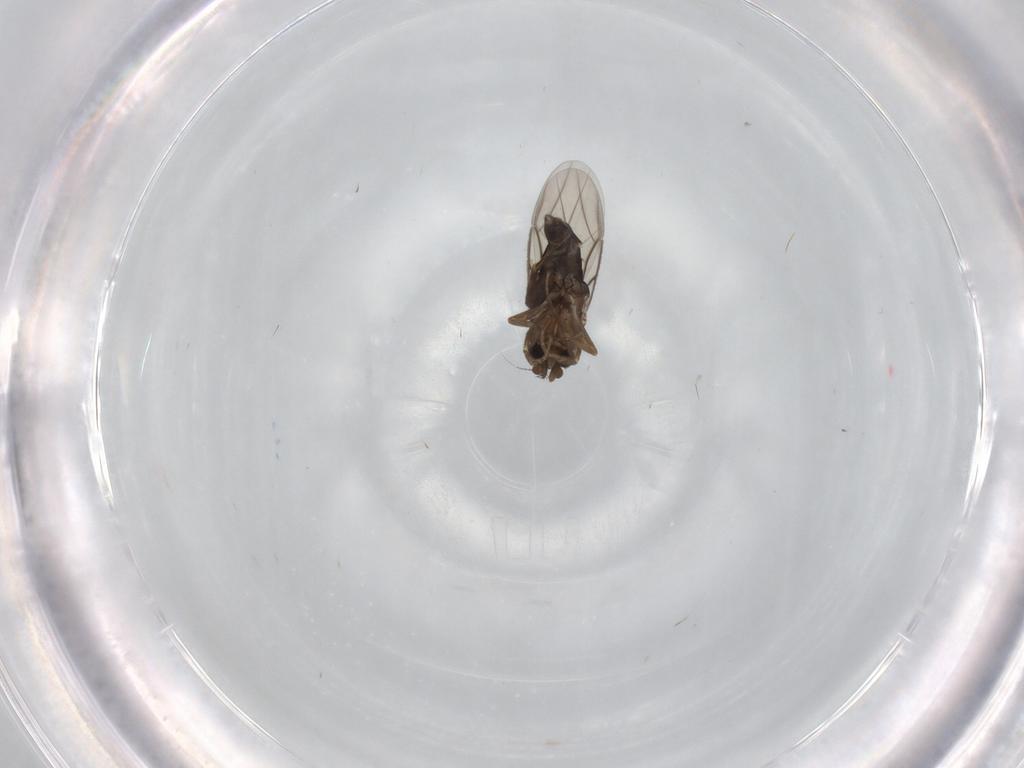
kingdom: Animalia
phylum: Arthropoda
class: Insecta
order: Diptera
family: Phoridae
